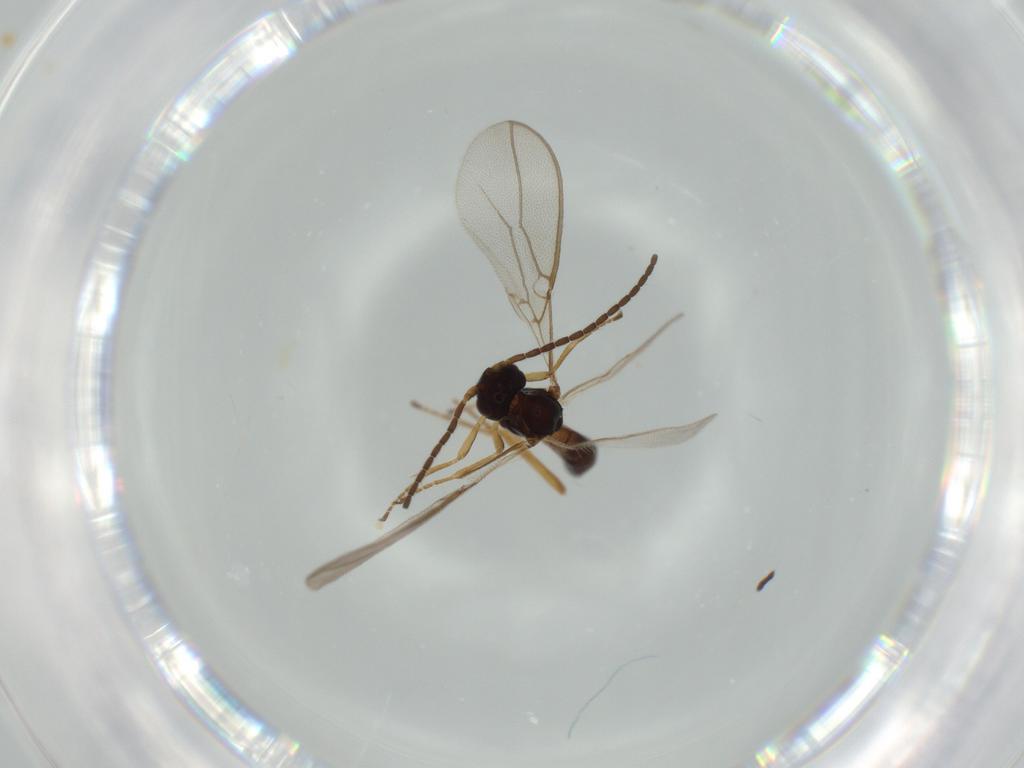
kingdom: Animalia
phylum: Arthropoda
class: Insecta
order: Hymenoptera
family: Braconidae
